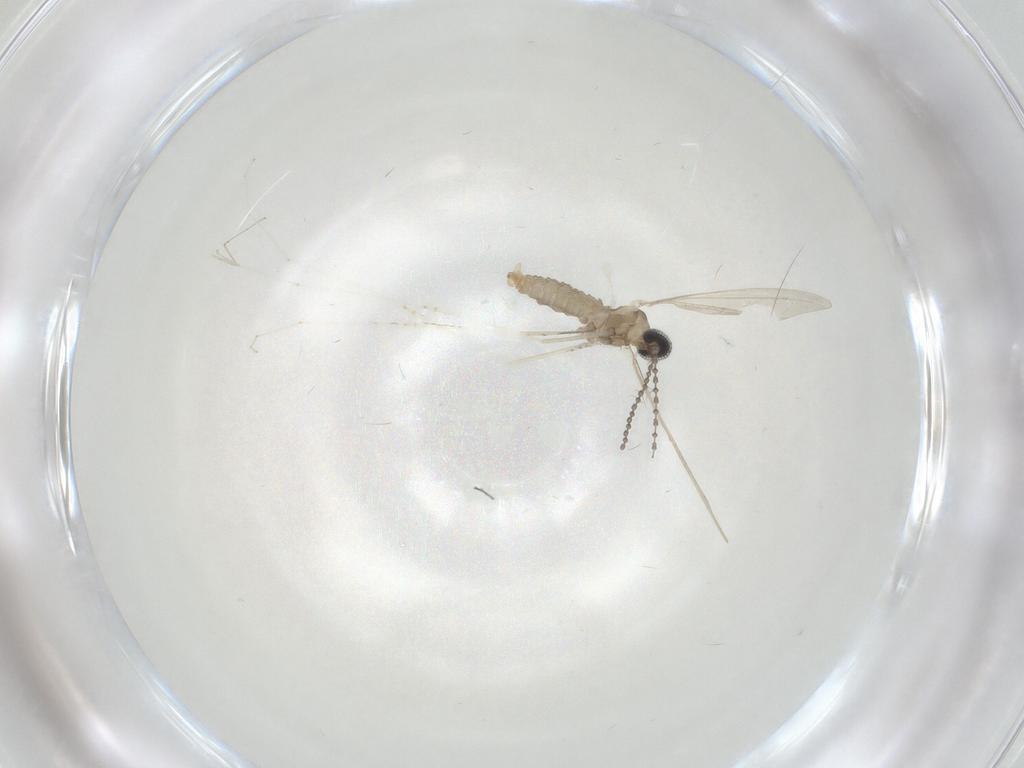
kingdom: Animalia
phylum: Arthropoda
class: Insecta
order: Diptera
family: Cecidomyiidae
